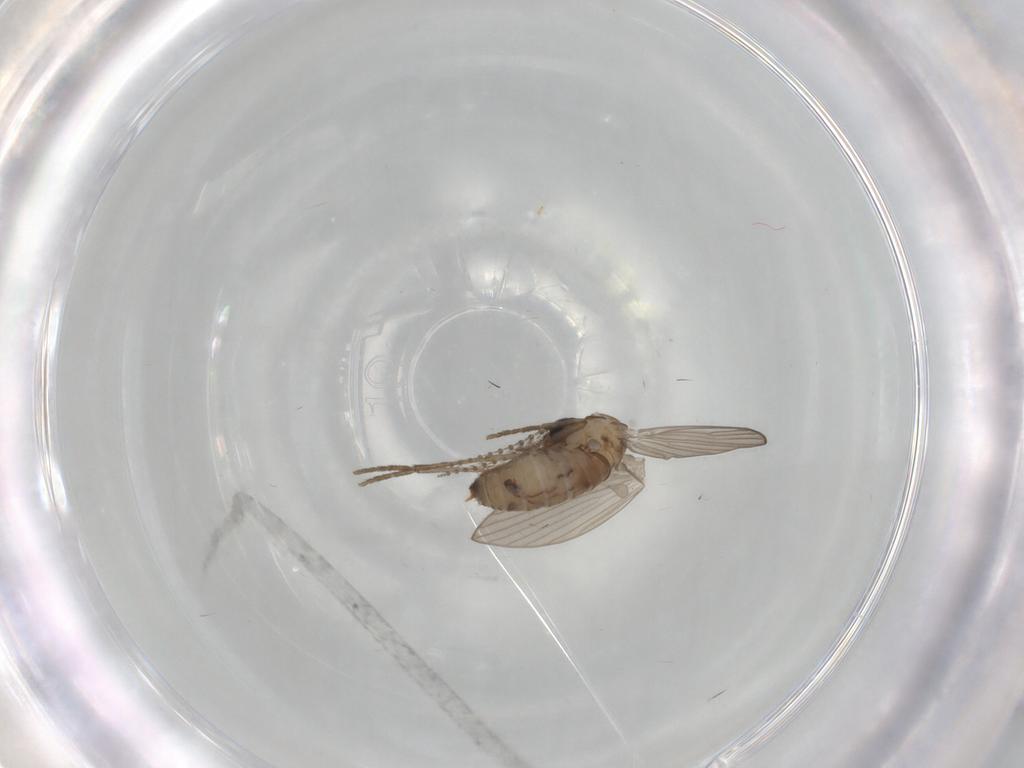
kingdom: Animalia
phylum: Arthropoda
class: Insecta
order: Diptera
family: Psychodidae
